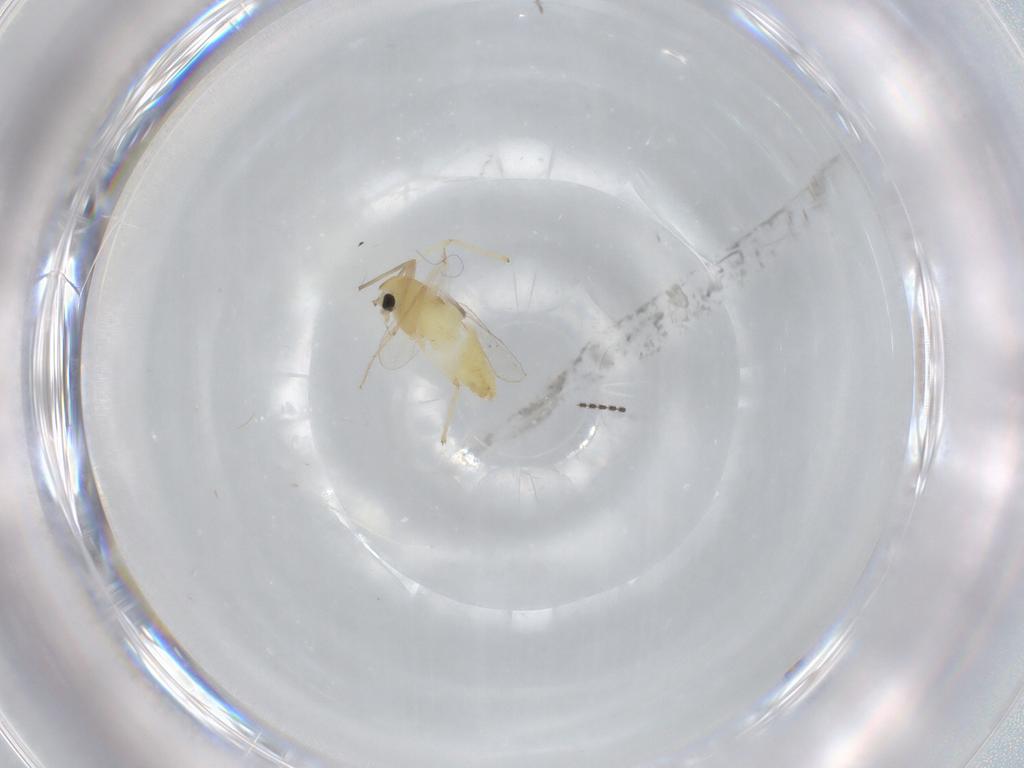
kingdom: Animalia
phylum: Arthropoda
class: Insecta
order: Diptera
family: Chironomidae
